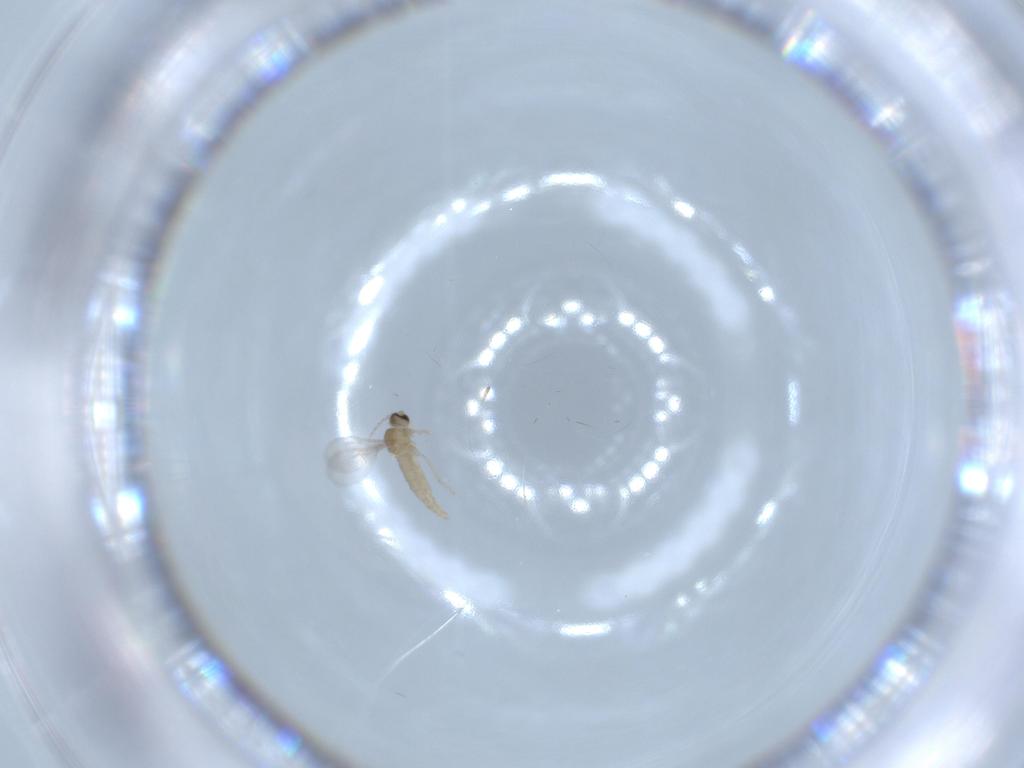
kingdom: Animalia
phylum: Arthropoda
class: Insecta
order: Diptera
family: Cecidomyiidae
